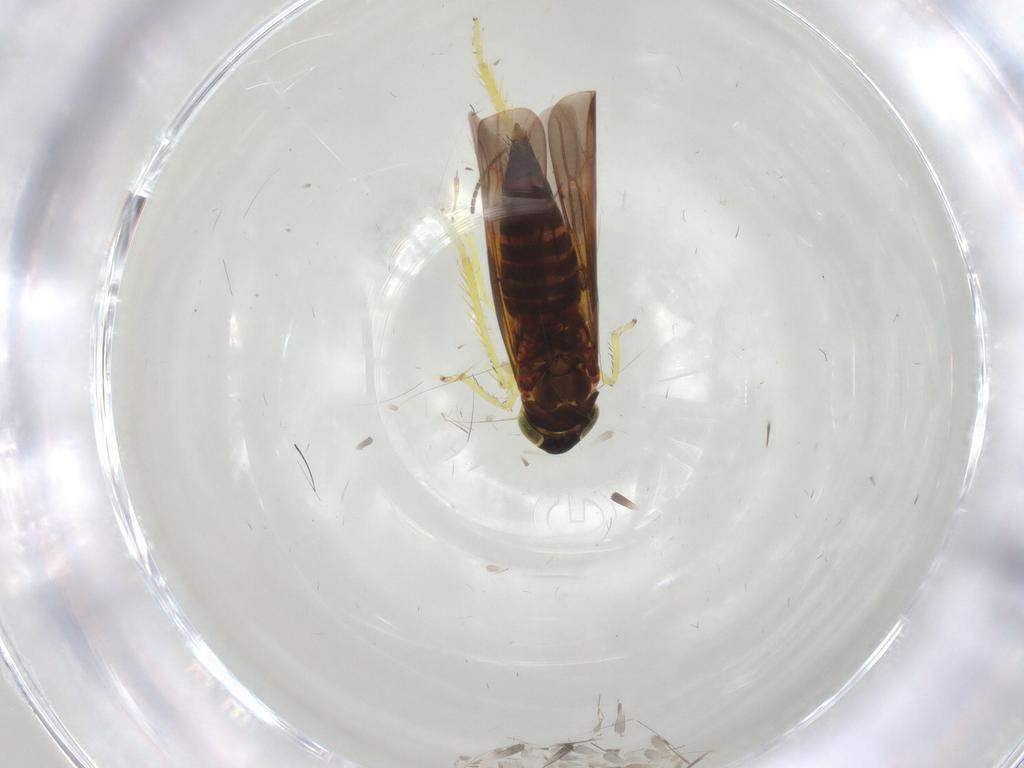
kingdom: Animalia
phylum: Arthropoda
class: Insecta
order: Hemiptera
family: Cicadellidae
